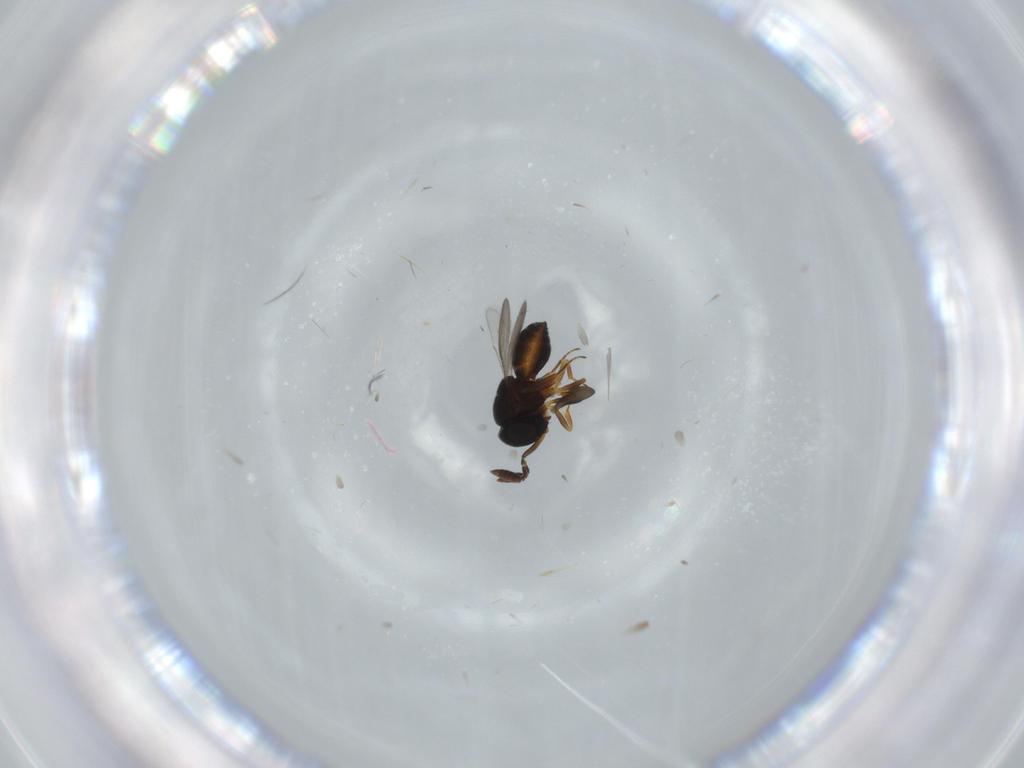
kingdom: Animalia
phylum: Arthropoda
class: Insecta
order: Hymenoptera
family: Scelionidae
